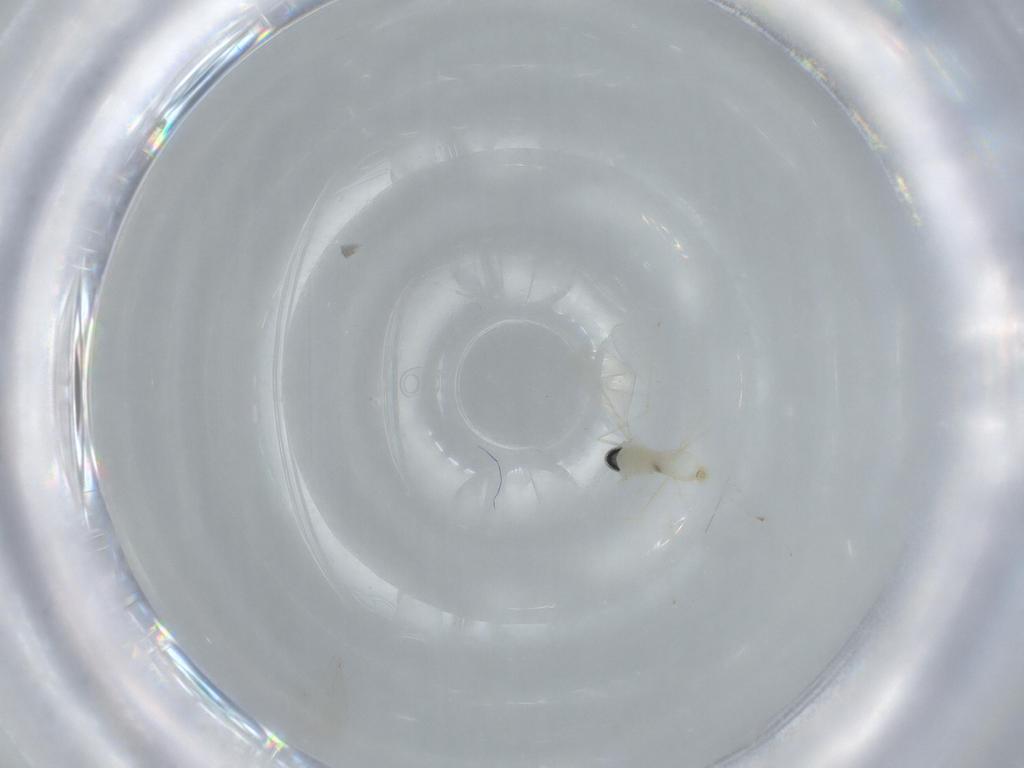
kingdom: Animalia
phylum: Arthropoda
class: Insecta
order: Diptera
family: Cecidomyiidae
